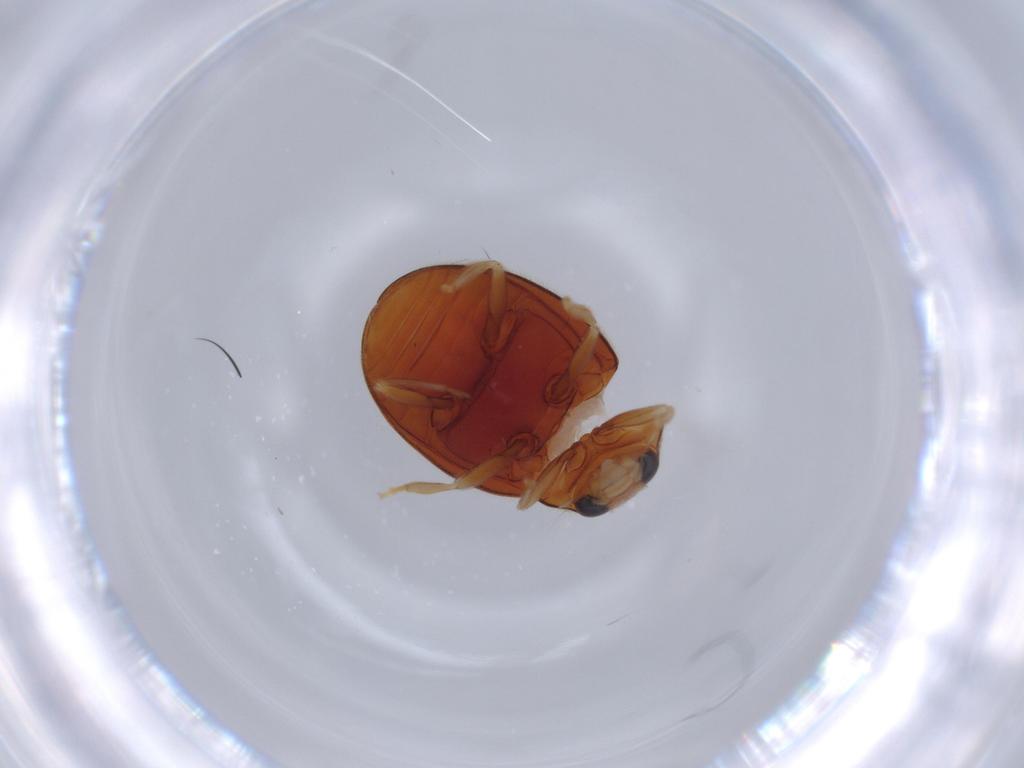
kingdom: Animalia
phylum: Arthropoda
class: Insecta
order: Coleoptera
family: Coccinellidae
